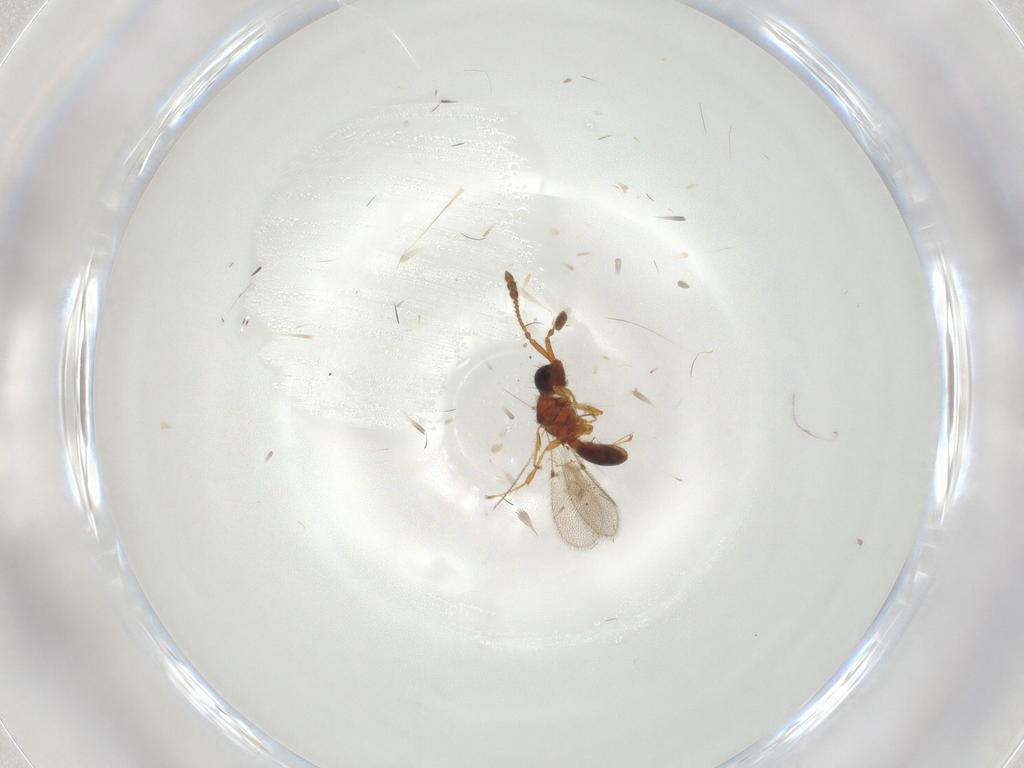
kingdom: Animalia
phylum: Arthropoda
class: Insecta
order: Hymenoptera
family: Diapriidae
